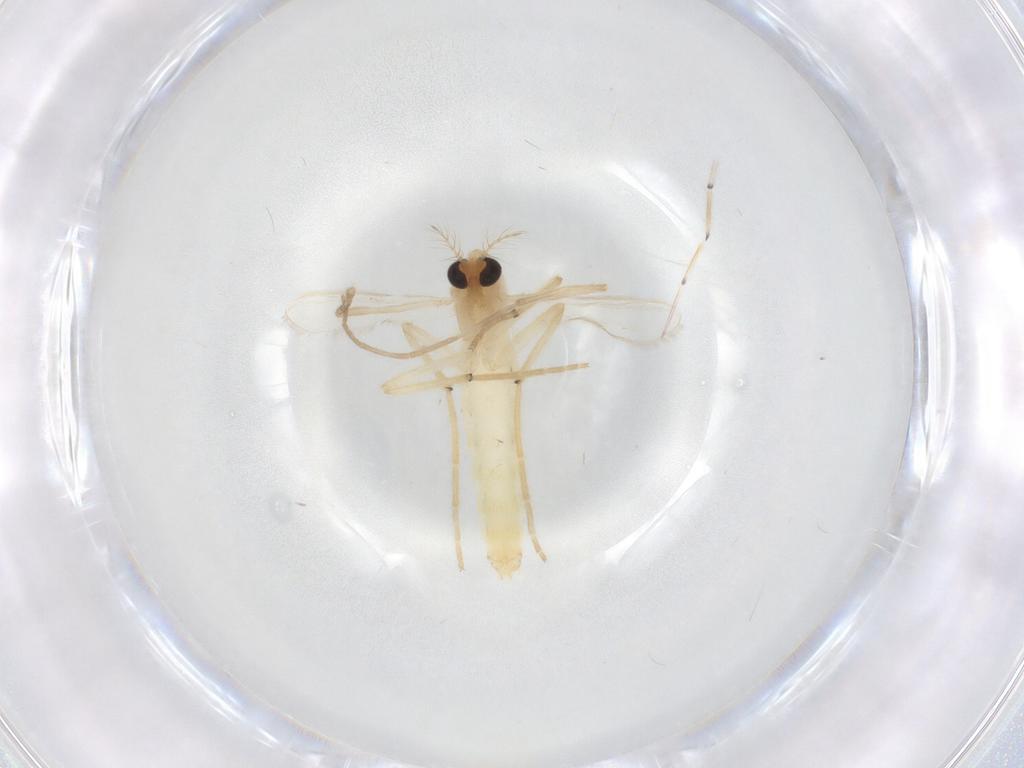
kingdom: Animalia
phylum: Arthropoda
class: Insecta
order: Diptera
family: Chironomidae
